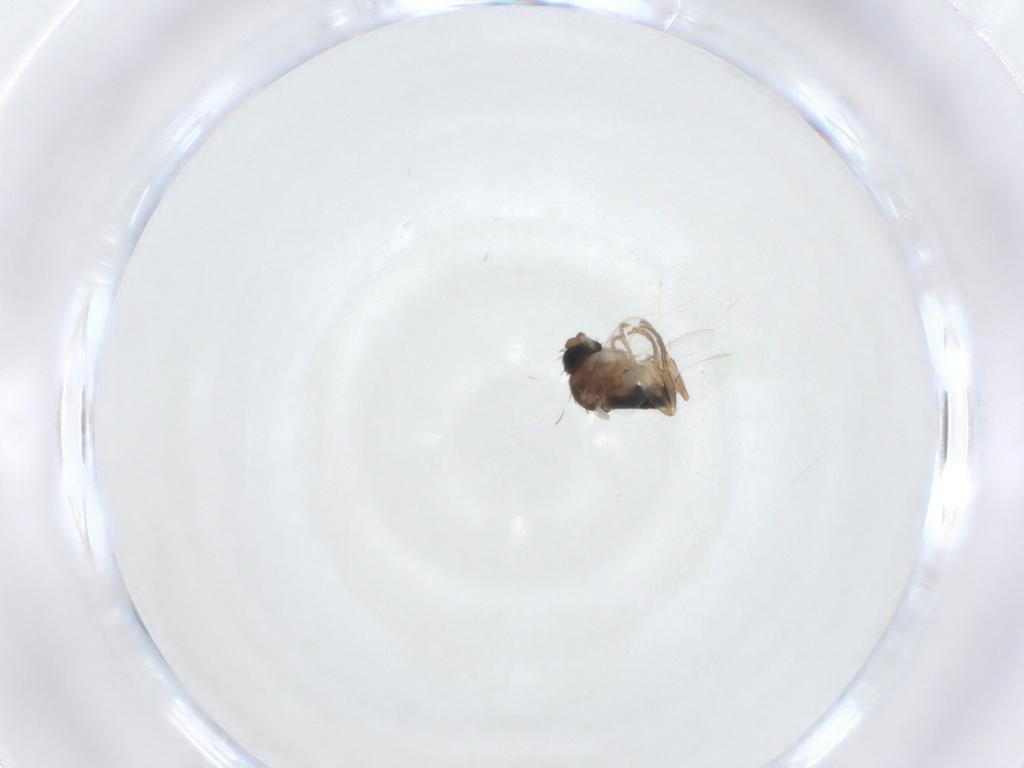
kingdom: Animalia
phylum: Arthropoda
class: Insecta
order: Diptera
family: Chloropidae
